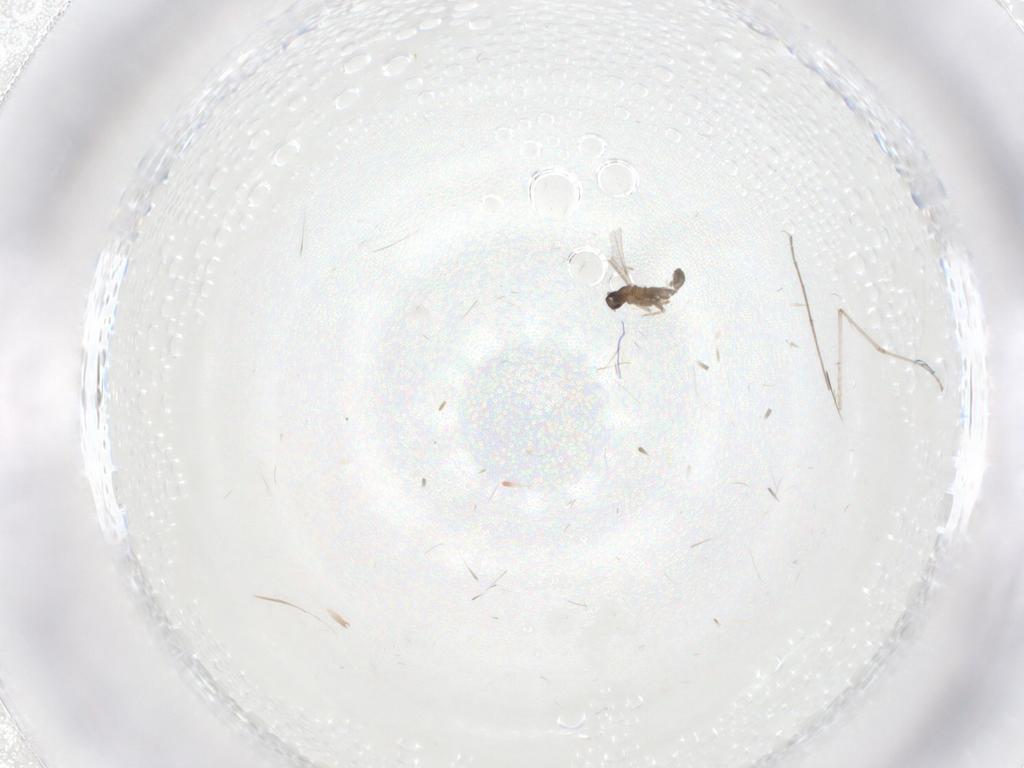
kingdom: Animalia
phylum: Arthropoda
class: Insecta
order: Diptera
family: Cecidomyiidae
